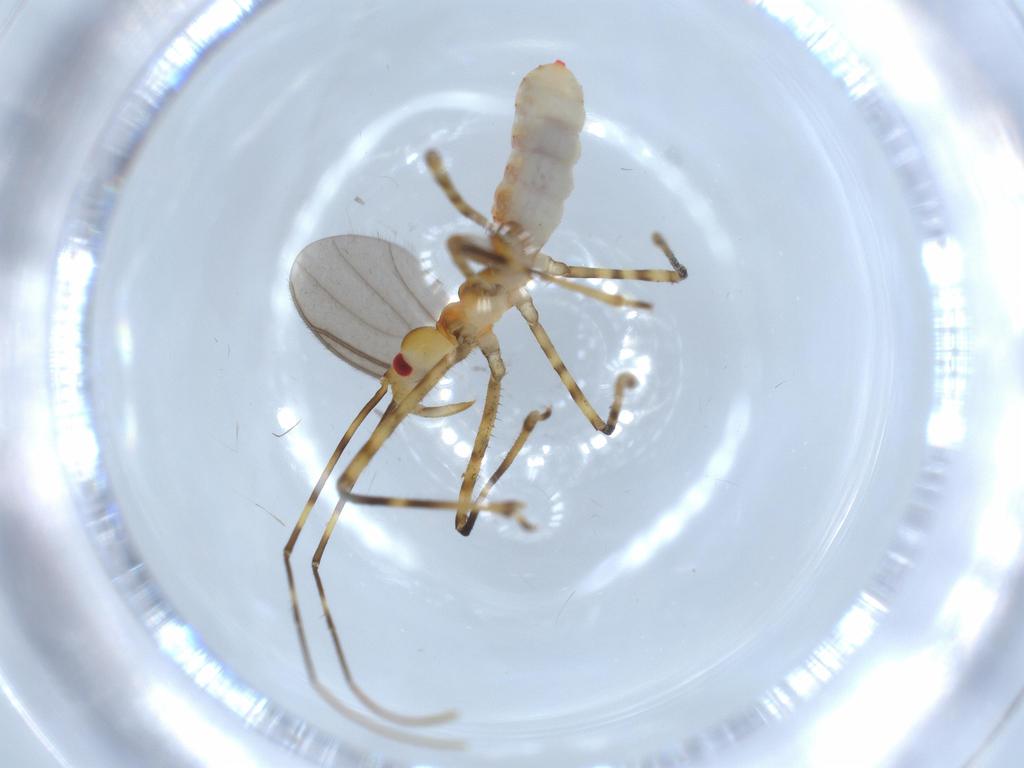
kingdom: Animalia
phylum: Arthropoda
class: Insecta
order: Hemiptera
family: Reduviidae
